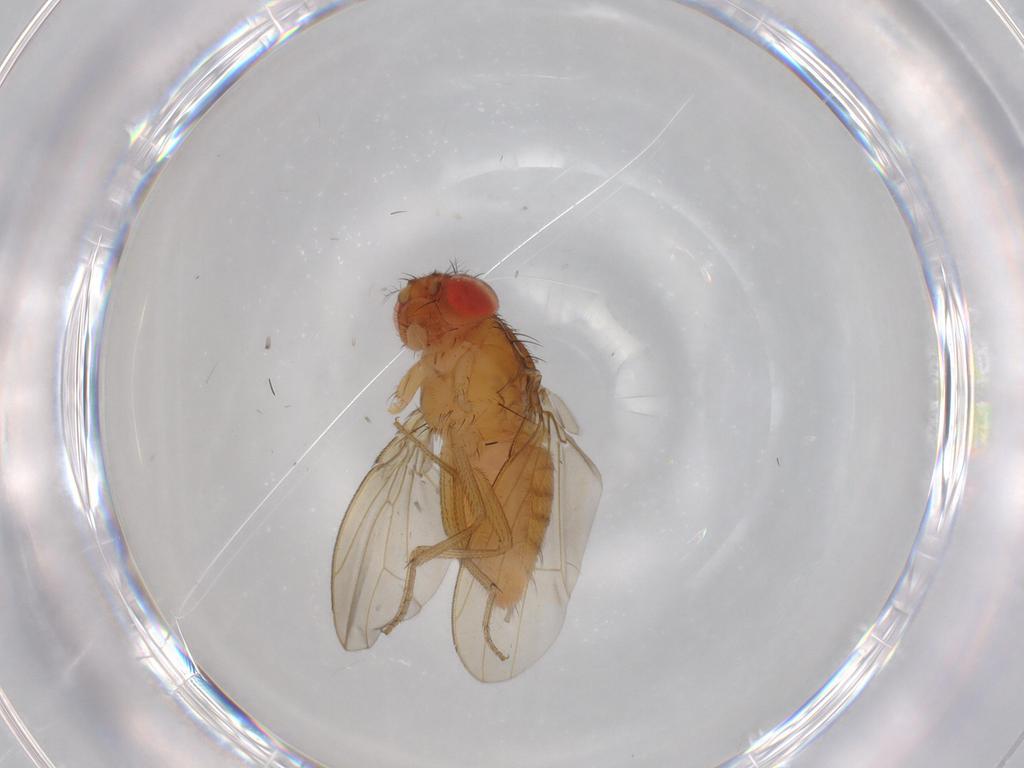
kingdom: Animalia
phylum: Arthropoda
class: Insecta
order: Diptera
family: Drosophilidae
